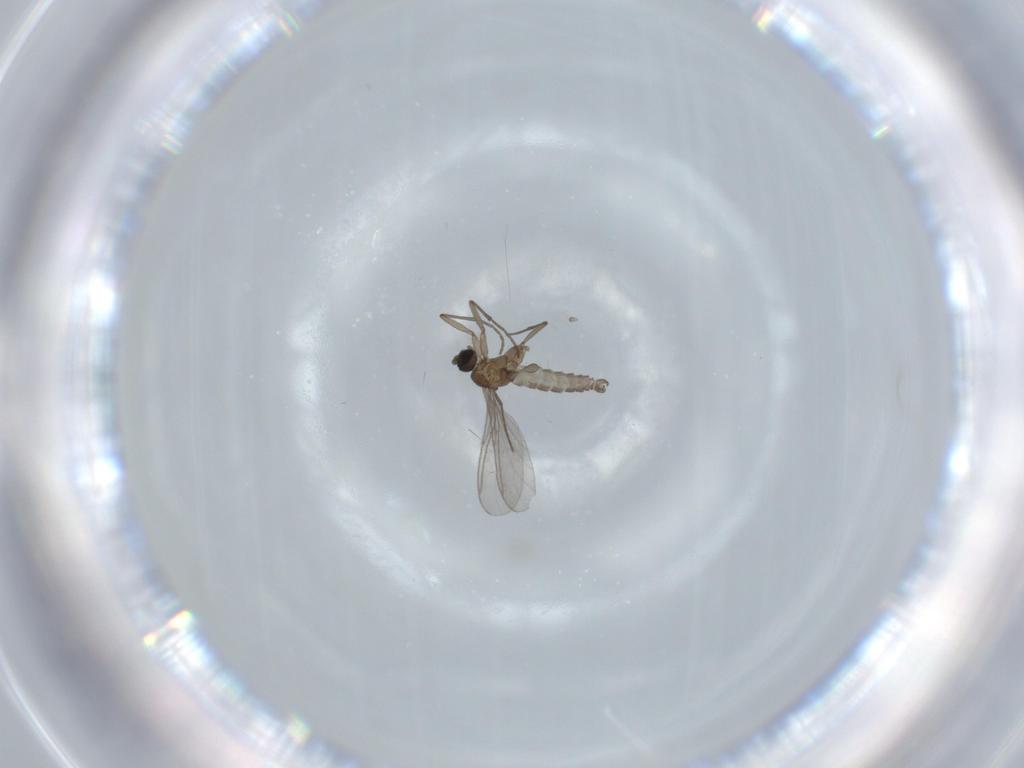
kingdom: Animalia
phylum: Arthropoda
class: Insecta
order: Diptera
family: Sciaridae
